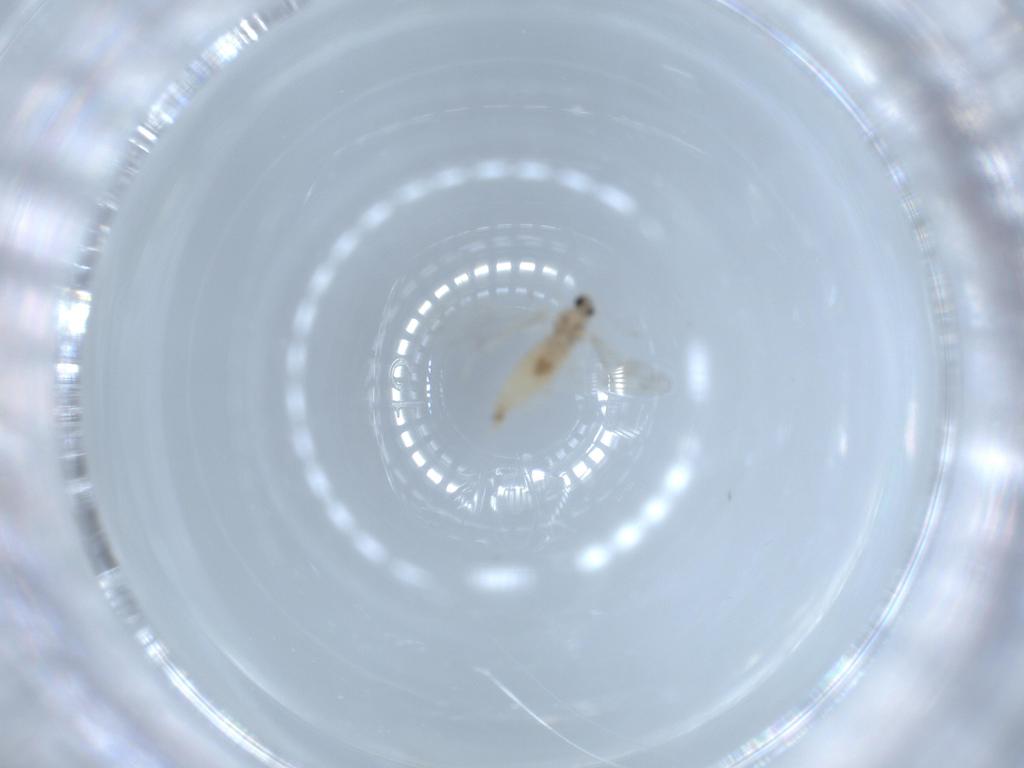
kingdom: Animalia
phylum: Arthropoda
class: Insecta
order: Diptera
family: Cecidomyiidae
